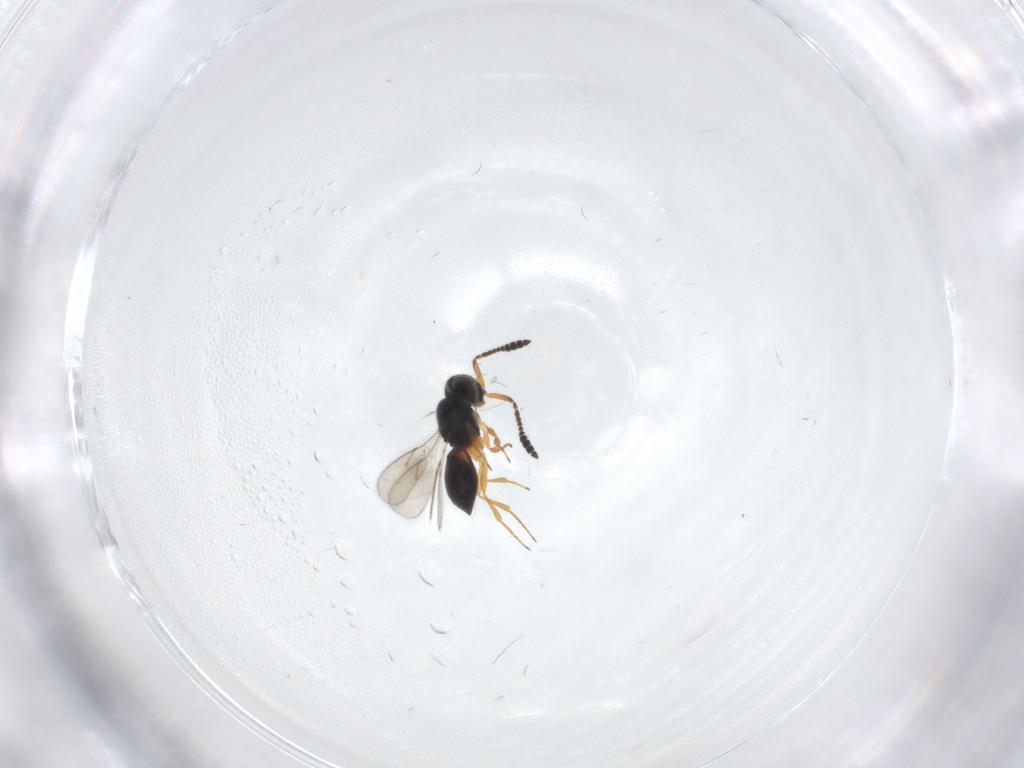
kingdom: Animalia
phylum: Arthropoda
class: Insecta
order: Hymenoptera
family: Scelionidae
